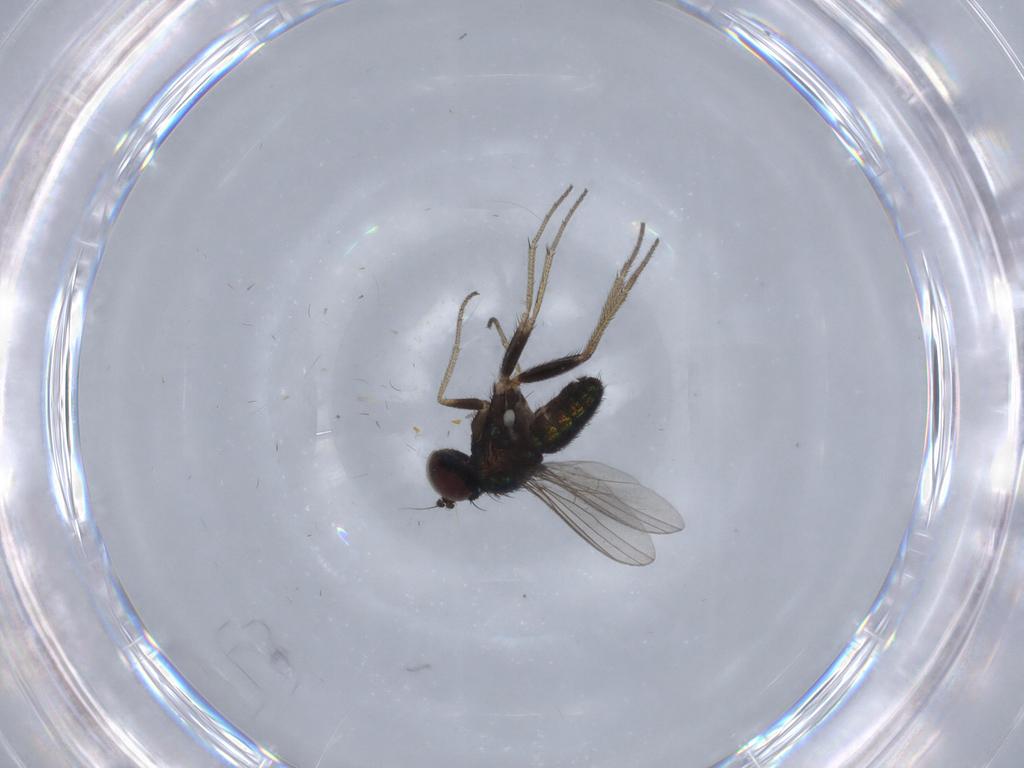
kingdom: Animalia
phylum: Arthropoda
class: Insecta
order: Diptera
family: Dolichopodidae
